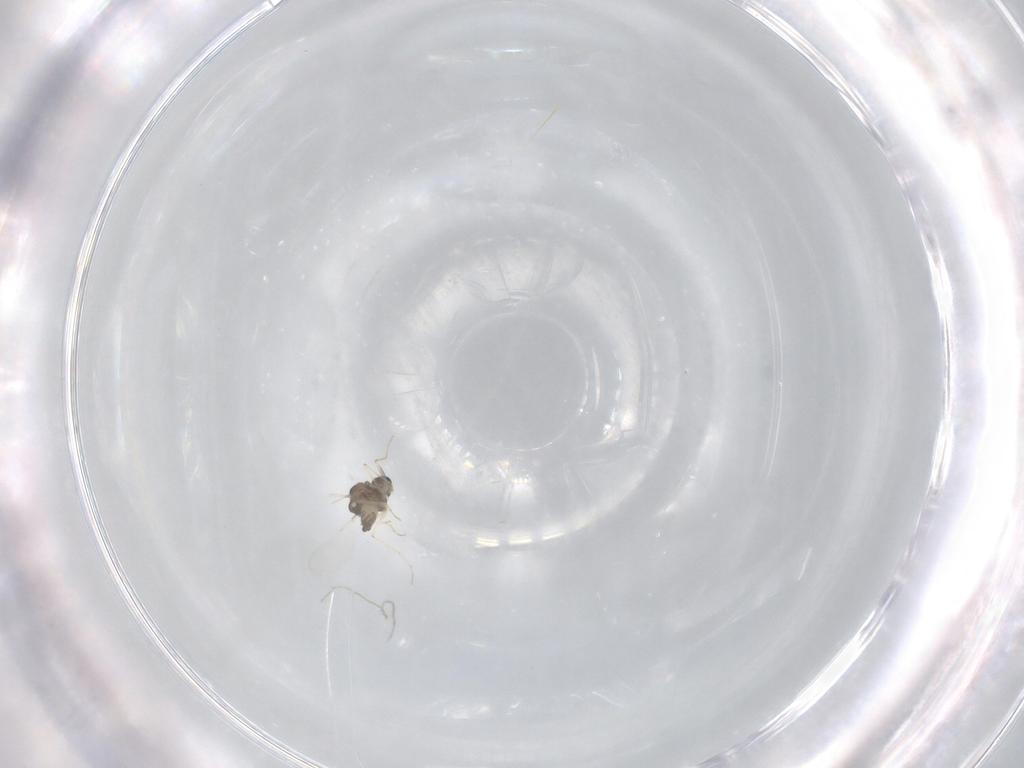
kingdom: Animalia
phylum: Arthropoda
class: Insecta
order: Diptera
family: Chironomidae
